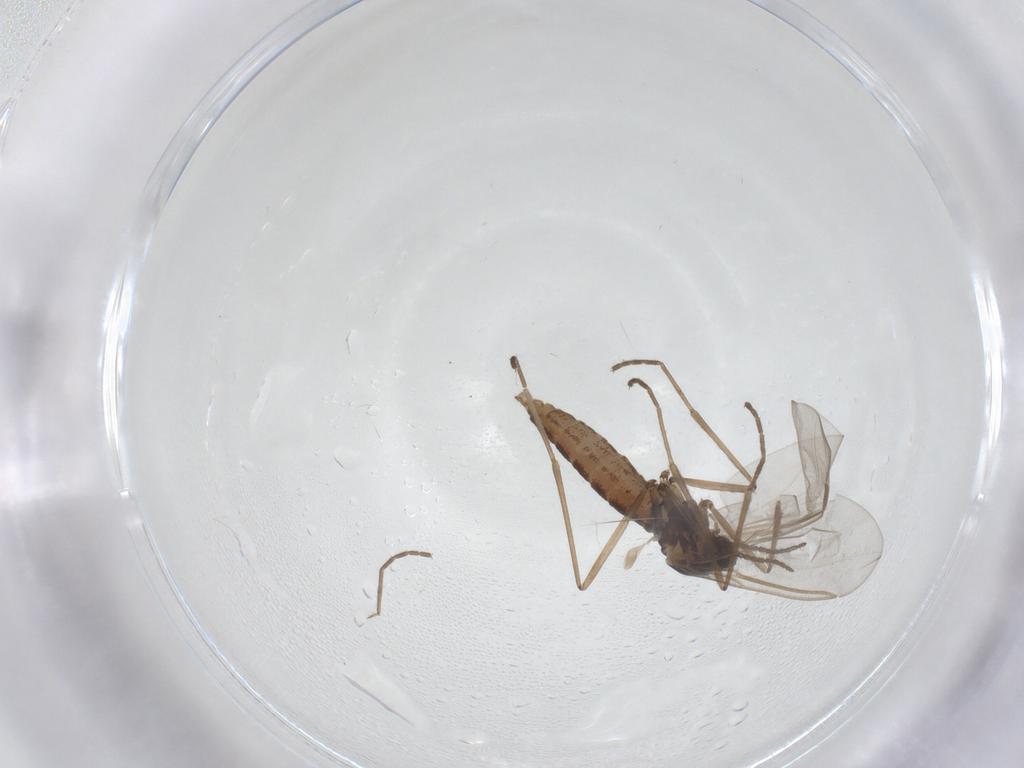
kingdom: Animalia
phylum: Arthropoda
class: Insecta
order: Diptera
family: Cecidomyiidae
